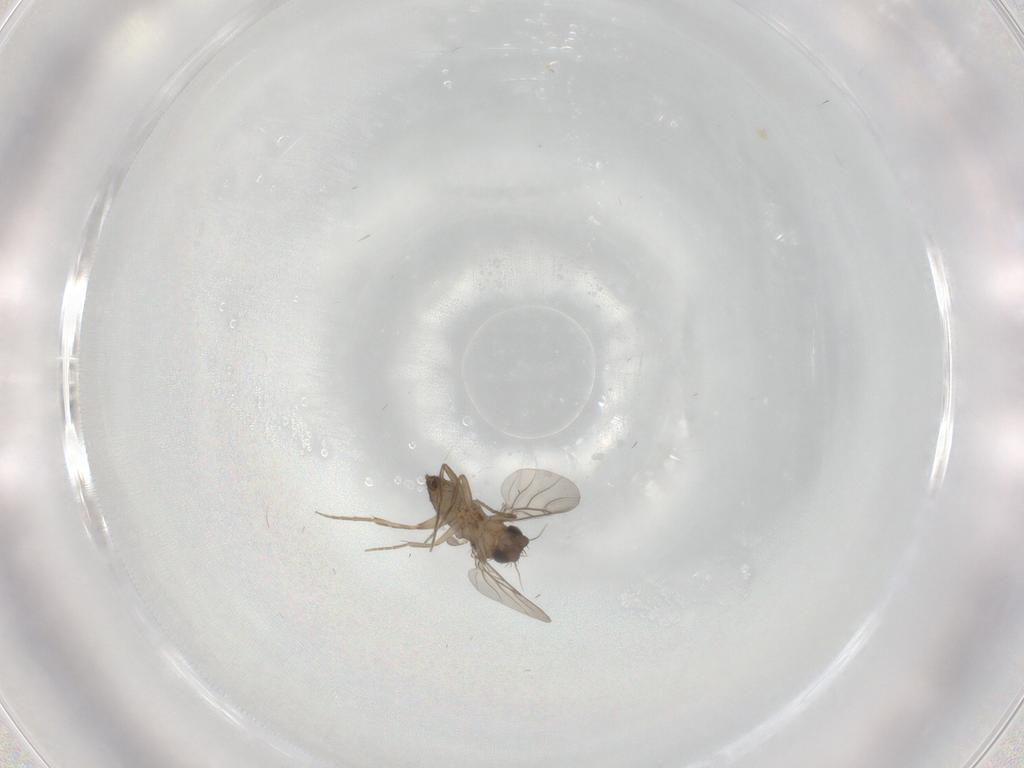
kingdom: Animalia
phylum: Arthropoda
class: Insecta
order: Diptera
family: Phoridae
